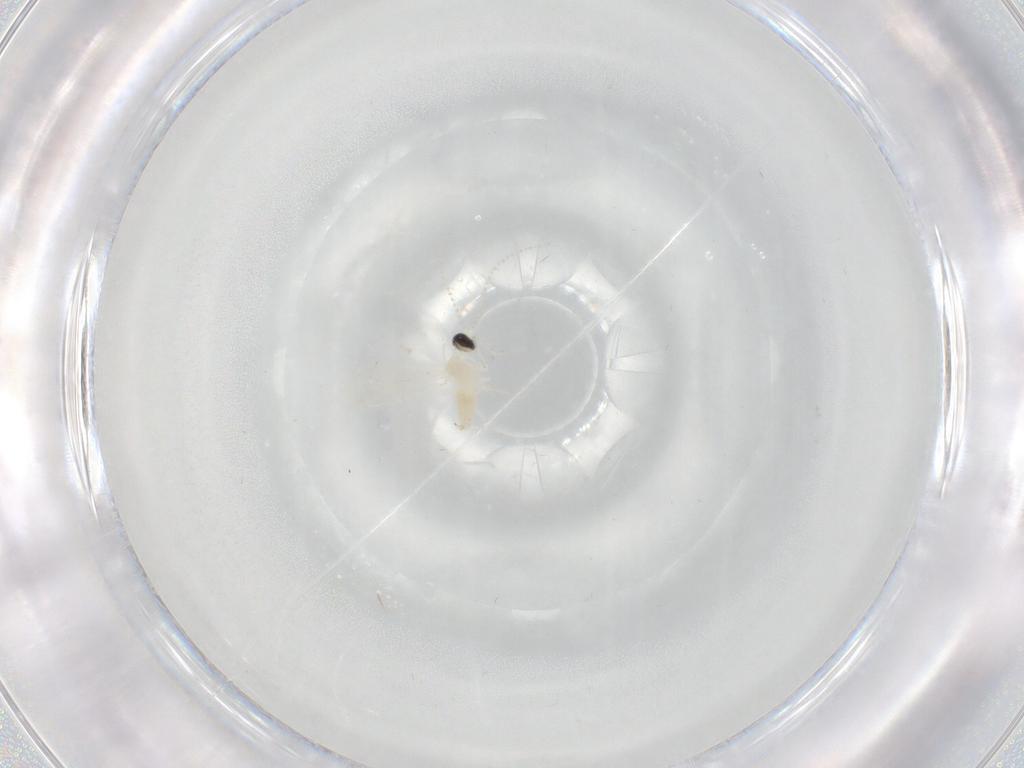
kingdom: Animalia
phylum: Arthropoda
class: Insecta
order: Diptera
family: Cecidomyiidae
